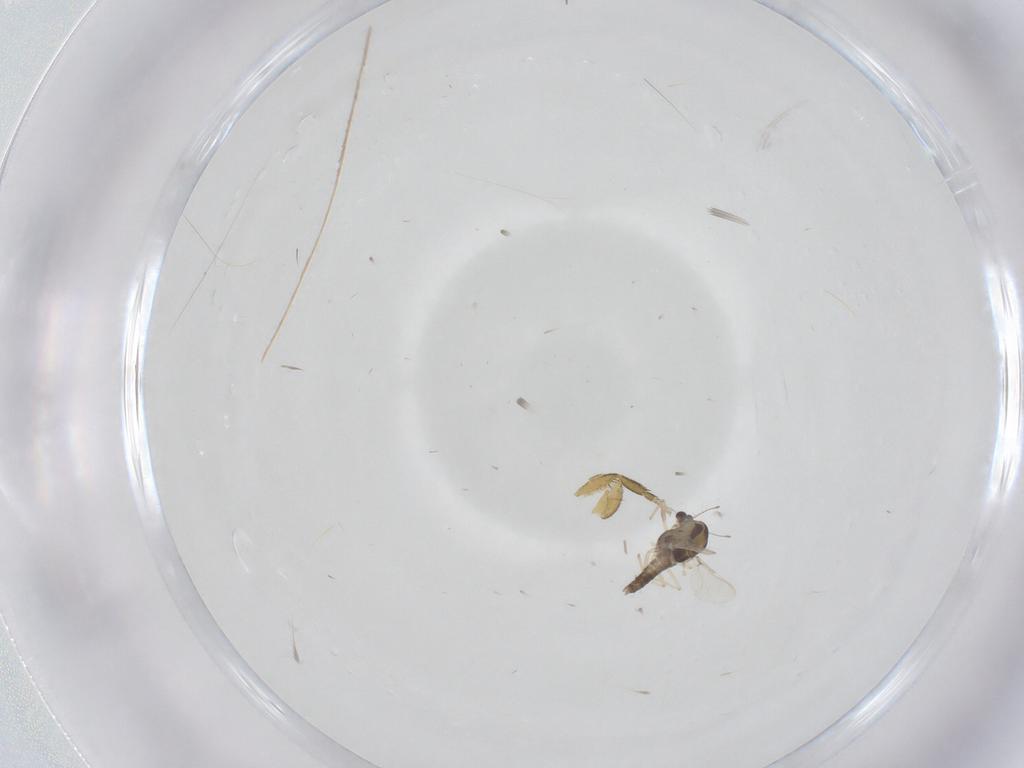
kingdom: Animalia
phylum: Arthropoda
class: Insecta
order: Diptera
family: Phoridae
